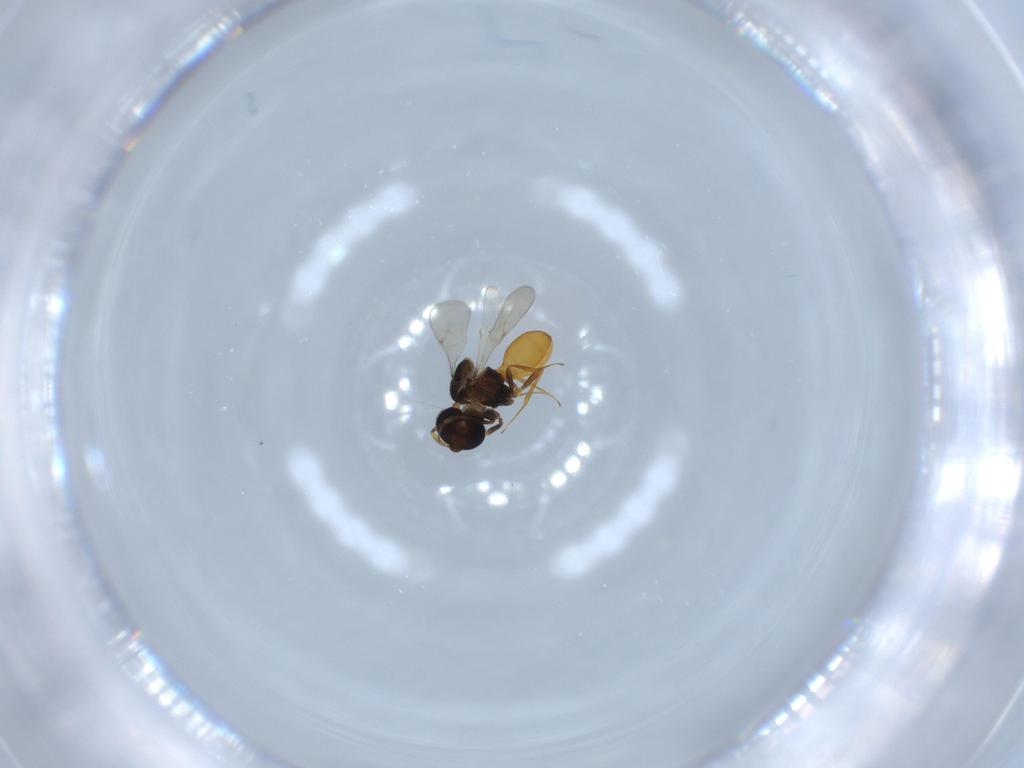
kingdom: Animalia
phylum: Arthropoda
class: Insecta
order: Hymenoptera
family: Scelionidae
